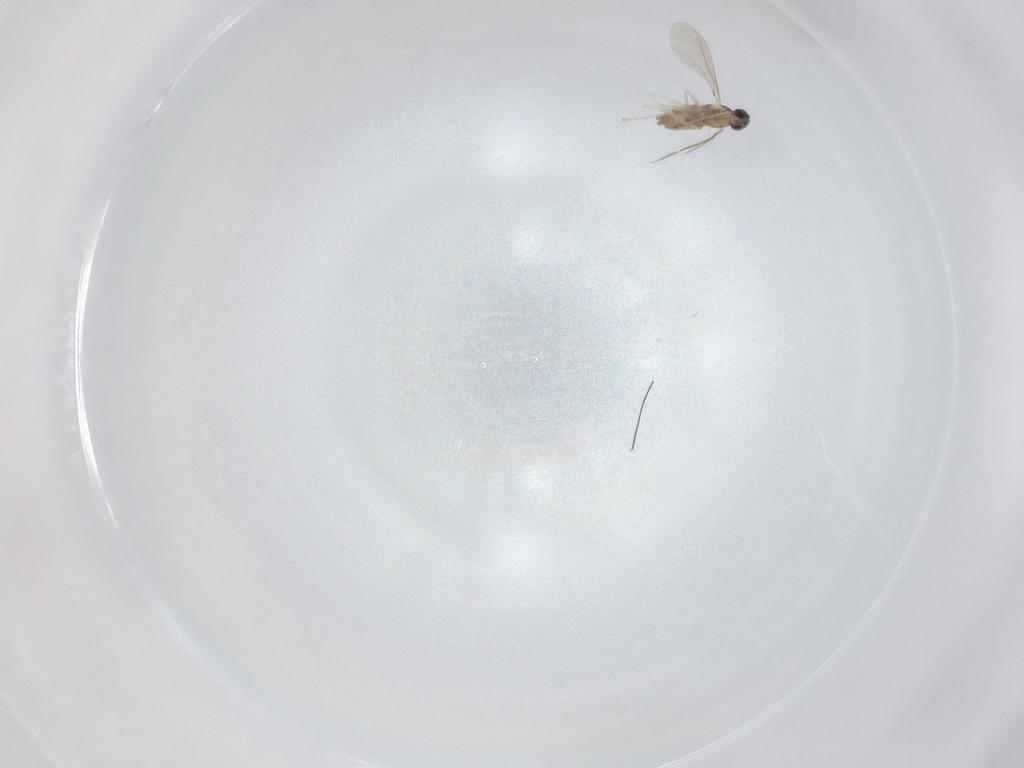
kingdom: Animalia
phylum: Arthropoda
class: Insecta
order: Diptera
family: Cecidomyiidae
